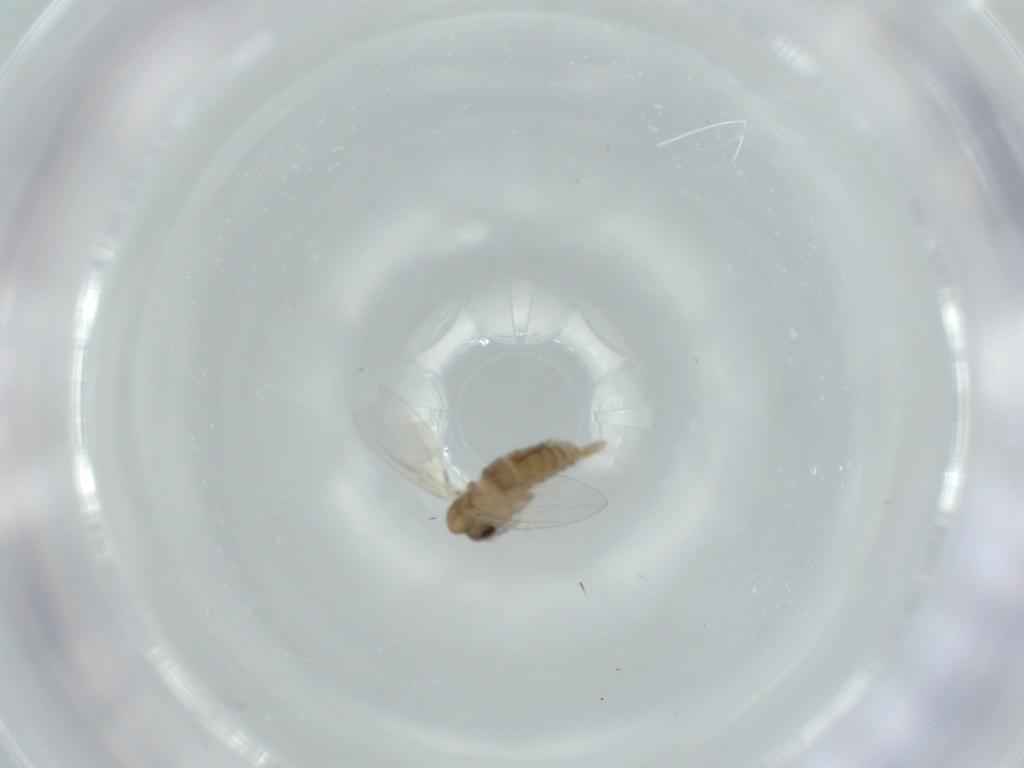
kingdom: Animalia
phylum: Arthropoda
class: Insecta
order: Diptera
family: Psychodidae
